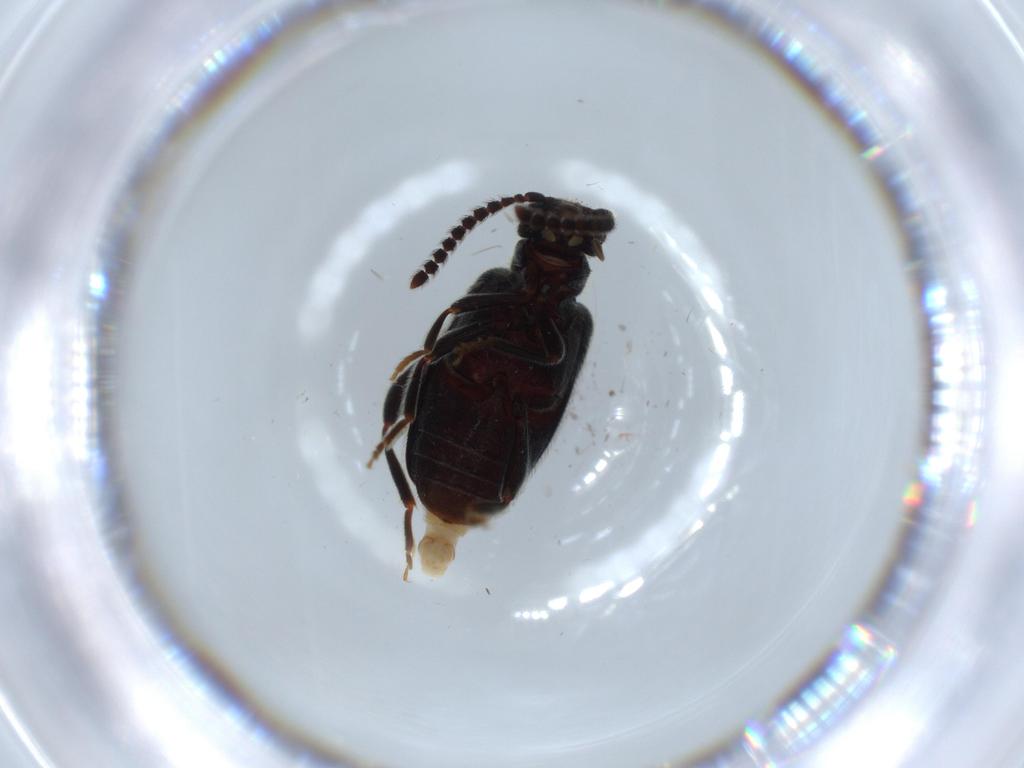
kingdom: Animalia
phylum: Arthropoda
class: Insecta
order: Coleoptera
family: Aderidae
